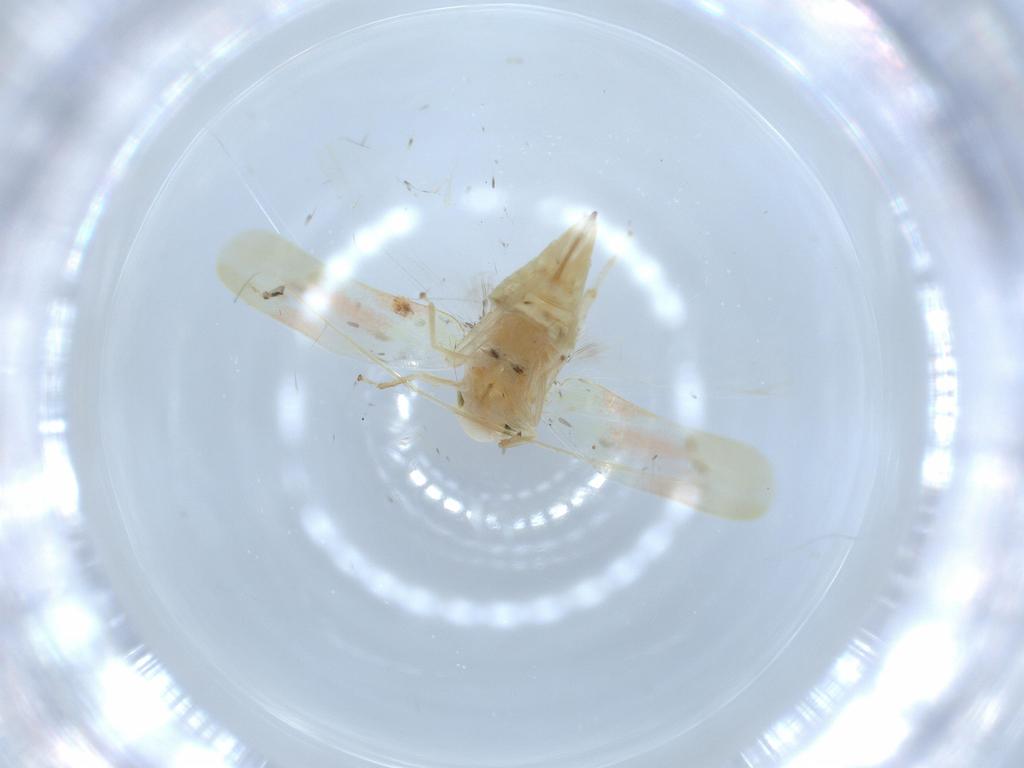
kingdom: Animalia
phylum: Arthropoda
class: Insecta
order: Hemiptera
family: Cicadellidae
